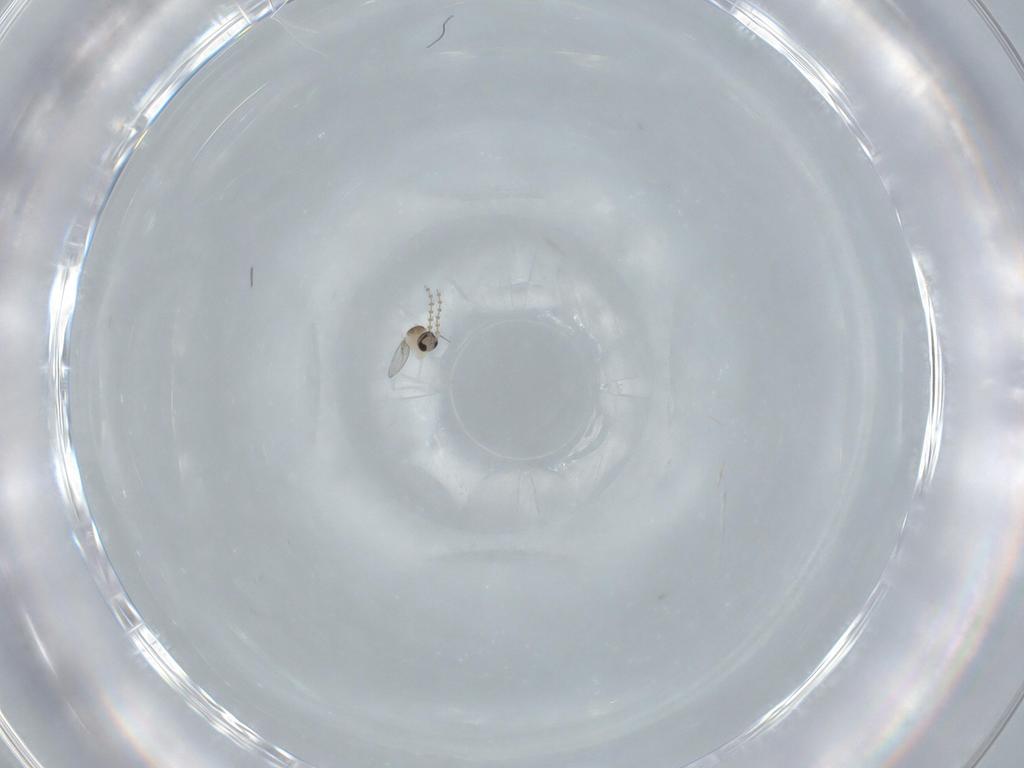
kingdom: Animalia
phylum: Arthropoda
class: Insecta
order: Diptera
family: Cecidomyiidae
